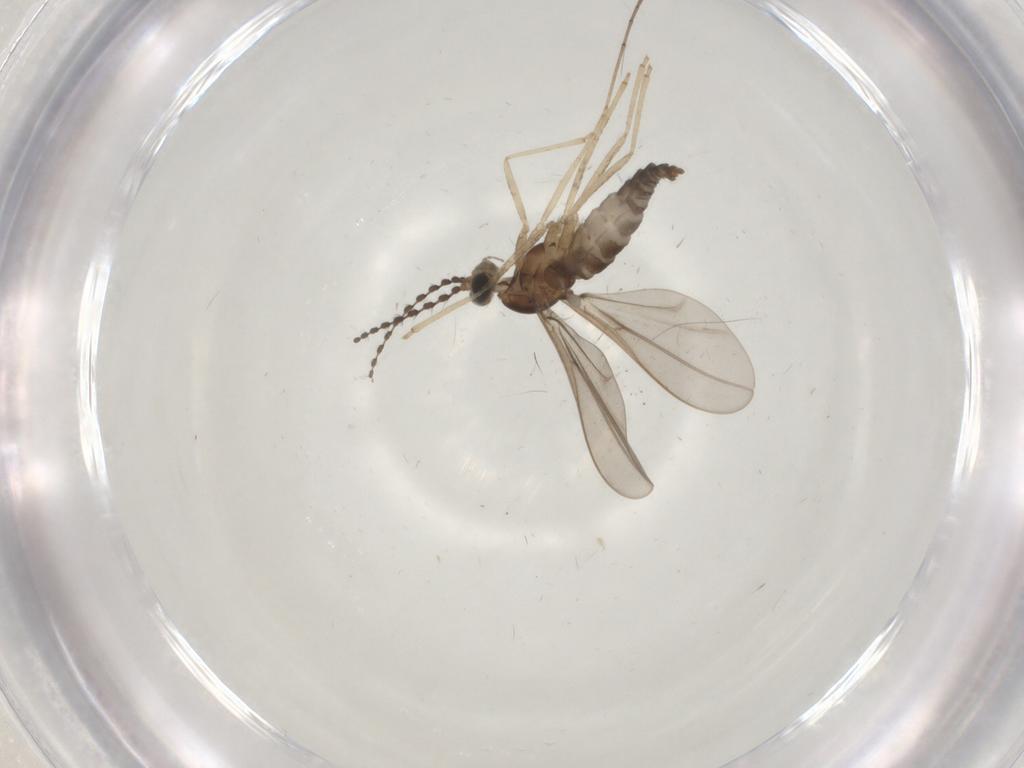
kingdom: Animalia
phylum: Arthropoda
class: Insecta
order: Diptera
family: Cecidomyiidae
